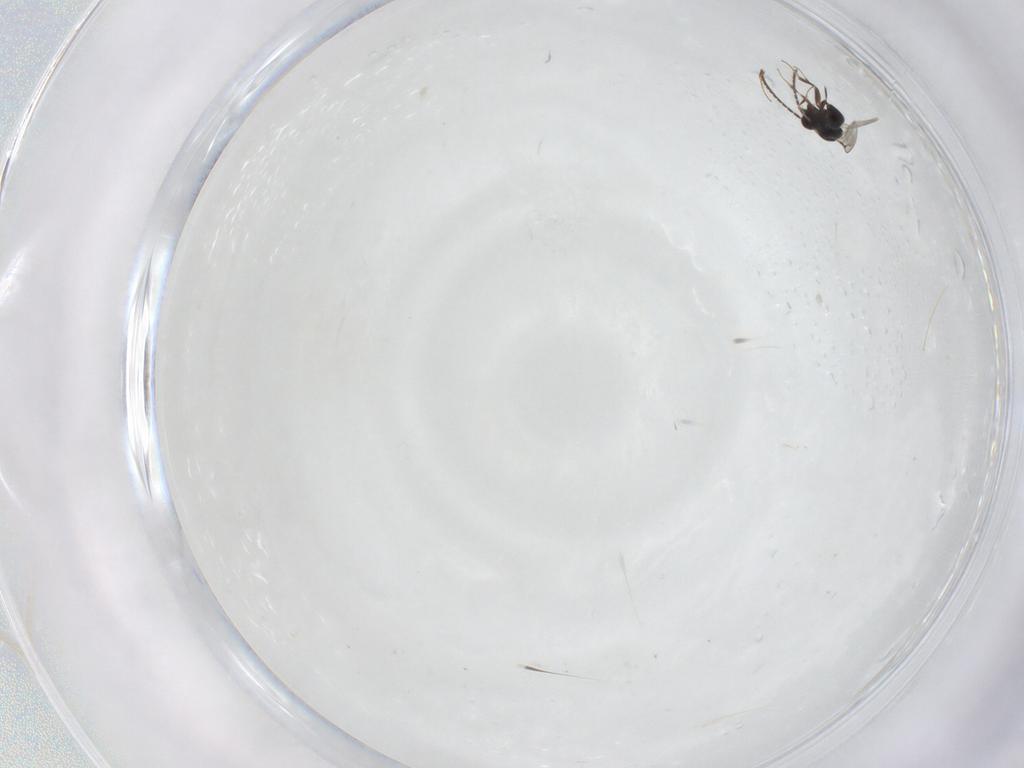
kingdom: Animalia
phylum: Arthropoda
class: Insecta
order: Hymenoptera
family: Ceraphronidae
